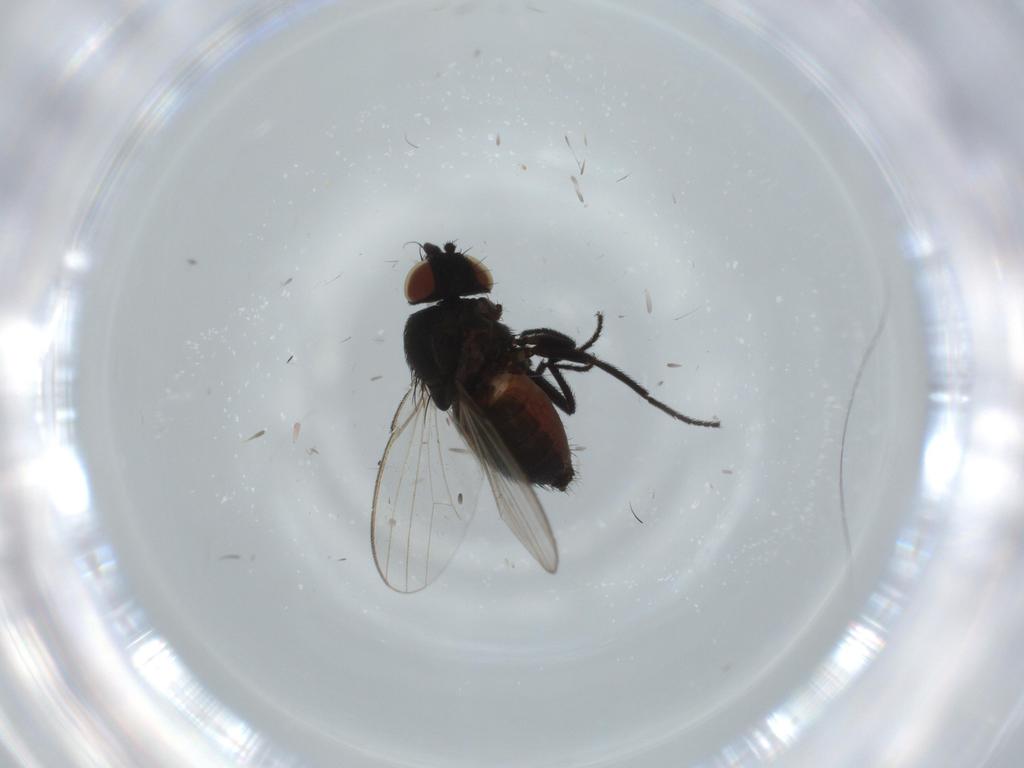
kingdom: Animalia
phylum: Arthropoda
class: Insecta
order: Diptera
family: Milichiidae
